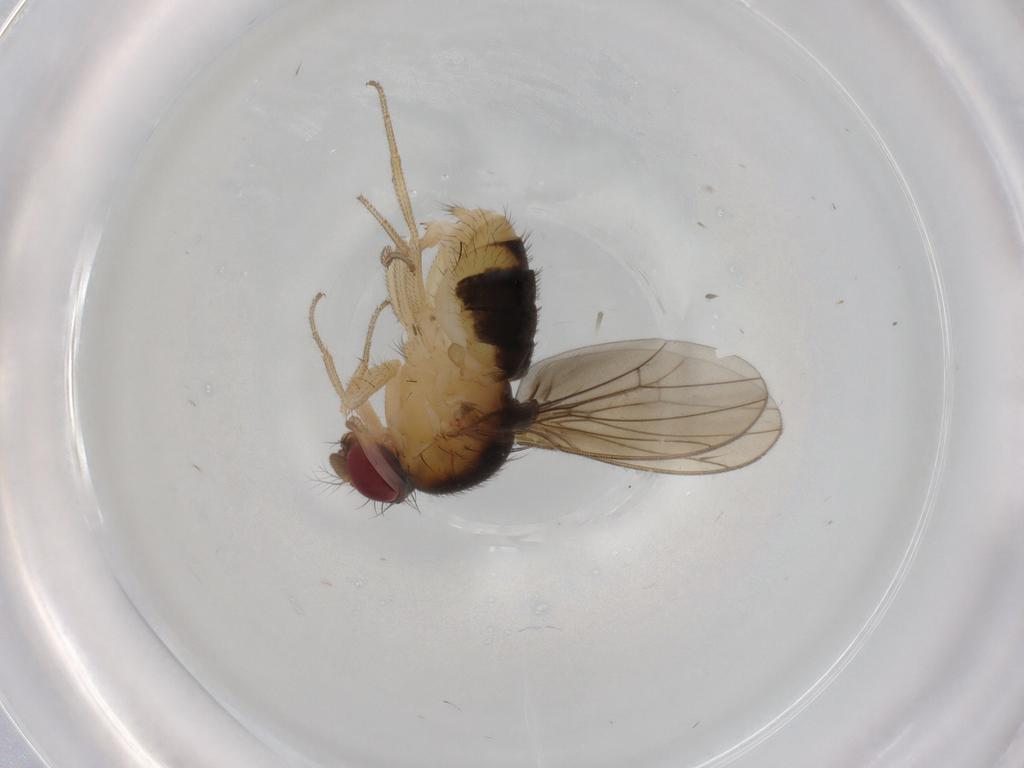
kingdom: Animalia
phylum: Arthropoda
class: Insecta
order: Diptera
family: Drosophilidae
